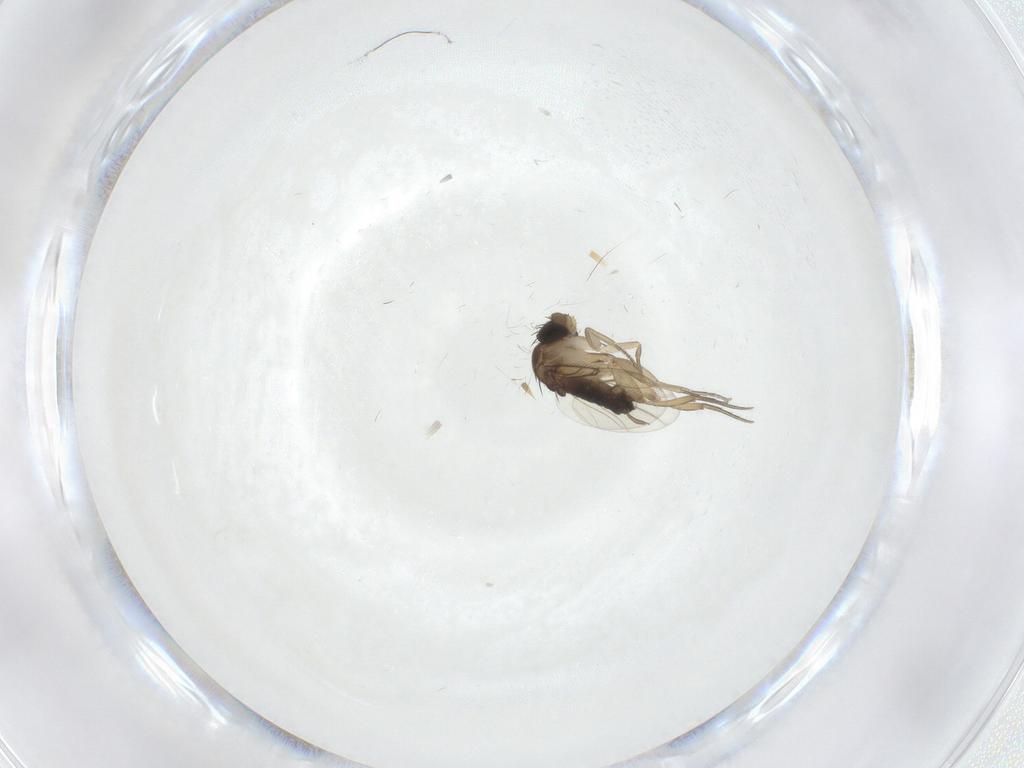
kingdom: Animalia
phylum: Arthropoda
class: Insecta
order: Diptera
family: Phoridae
